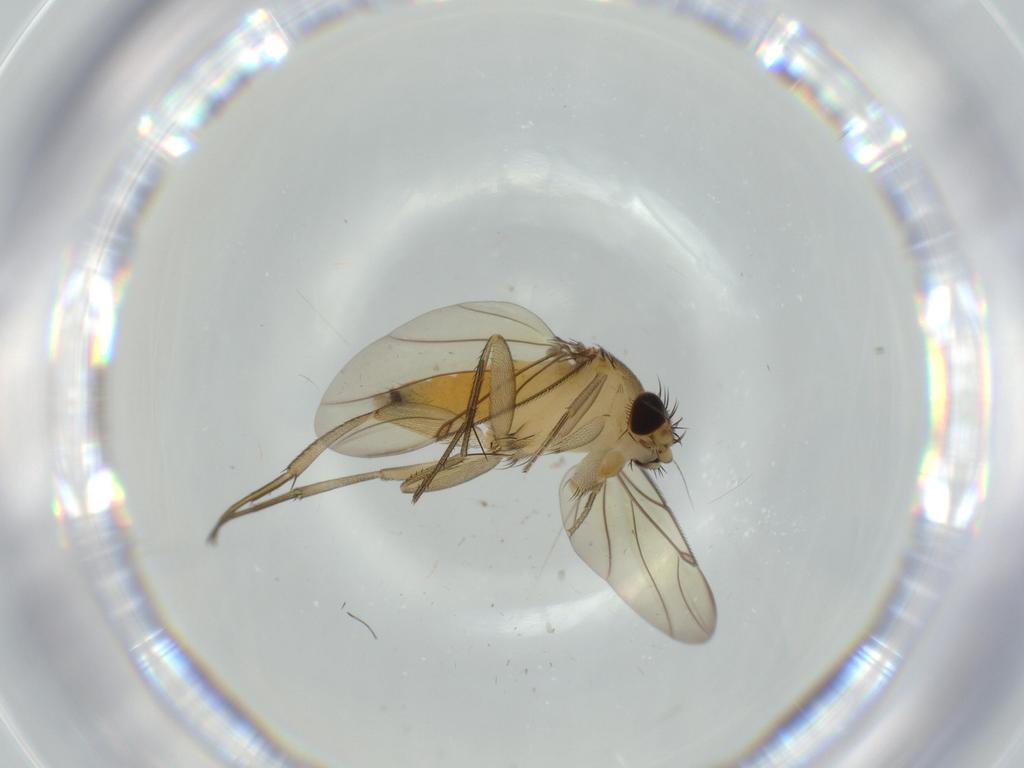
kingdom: Animalia
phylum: Arthropoda
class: Insecta
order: Diptera
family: Phoridae
